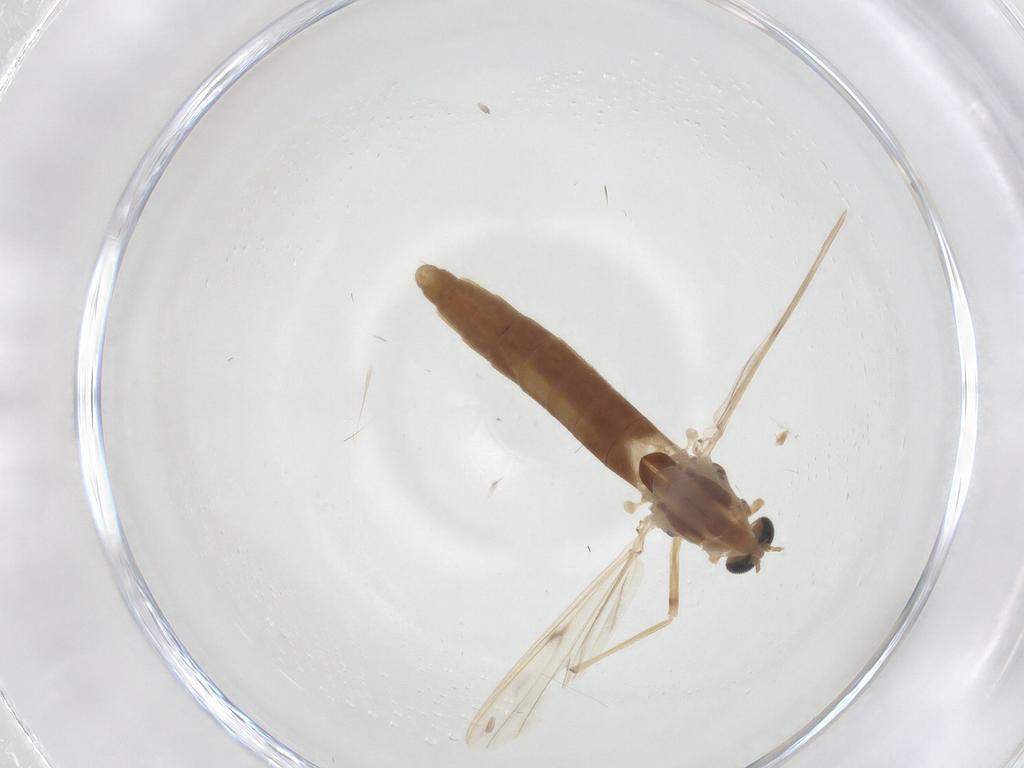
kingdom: Animalia
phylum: Arthropoda
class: Insecta
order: Diptera
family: Chironomidae
